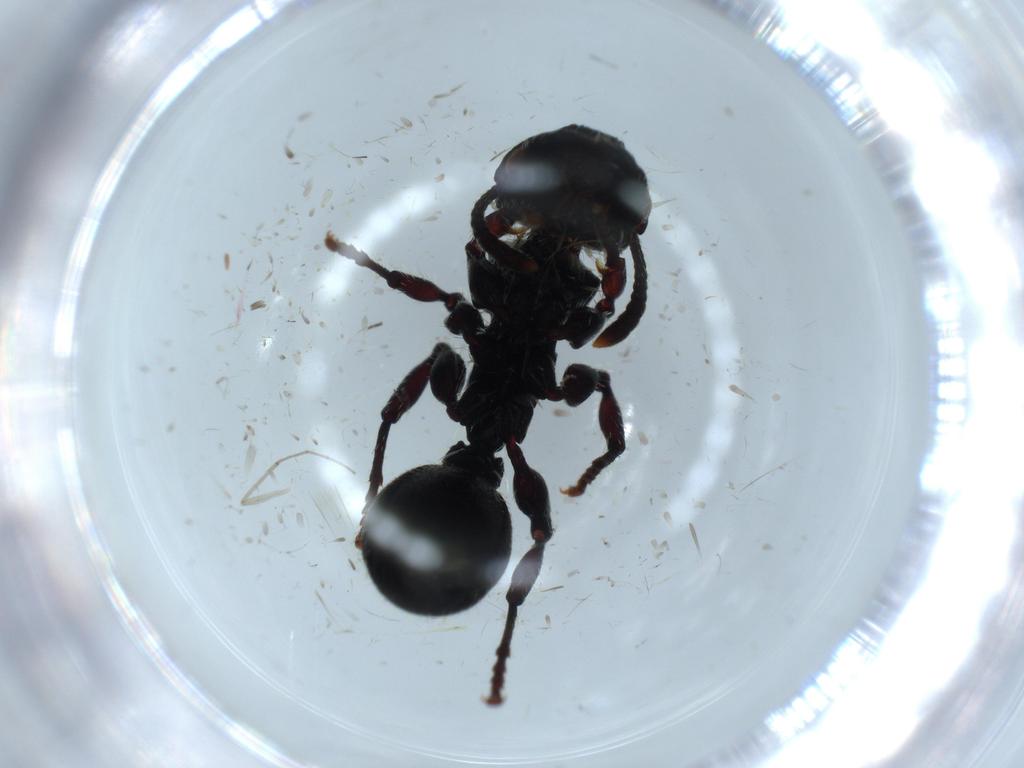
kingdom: Animalia
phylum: Arthropoda
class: Insecta
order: Hymenoptera
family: Formicidae
